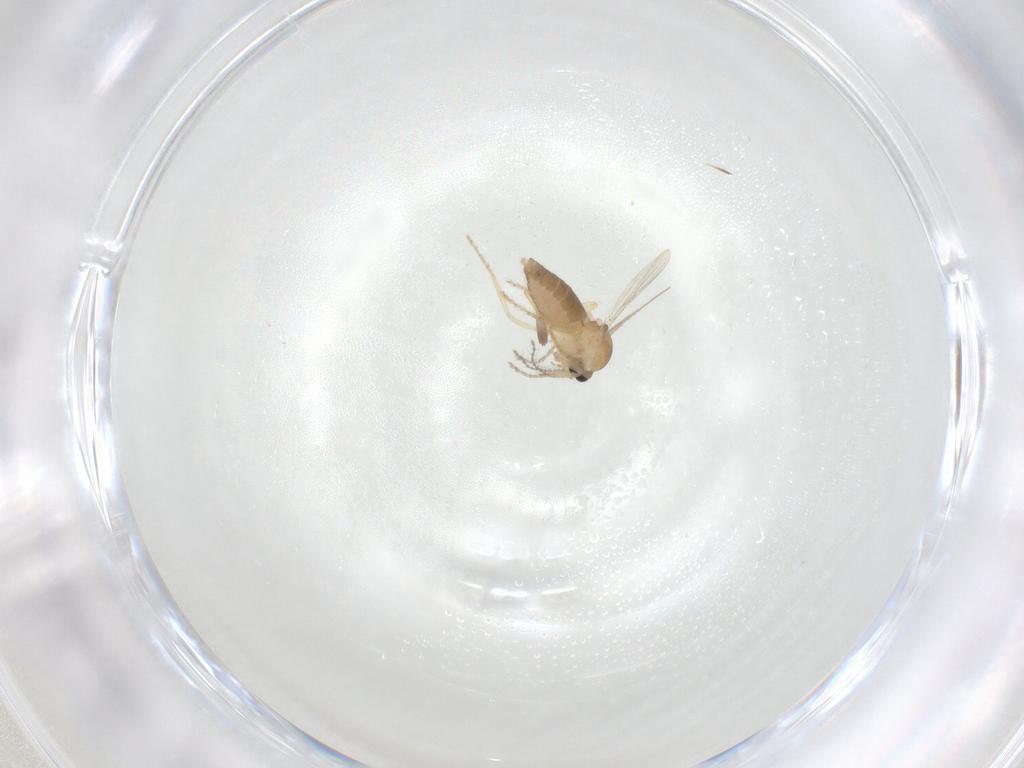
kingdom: Animalia
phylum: Arthropoda
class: Insecta
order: Diptera
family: Ceratopogonidae
